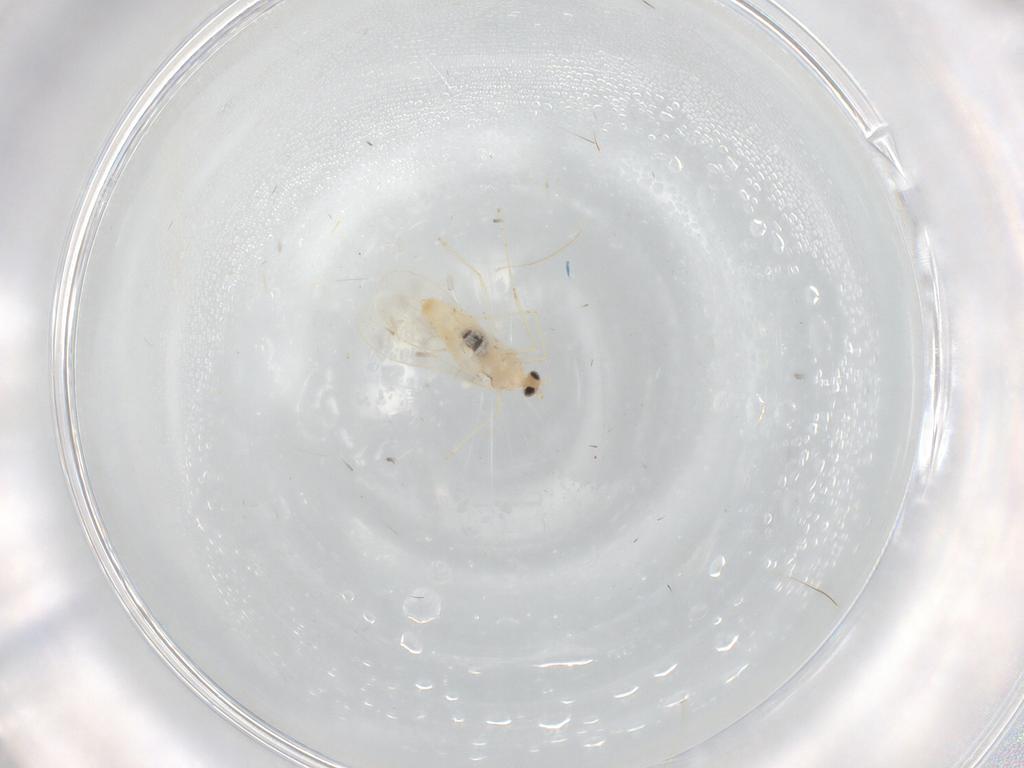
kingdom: Animalia
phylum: Arthropoda
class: Insecta
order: Diptera
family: Cecidomyiidae
